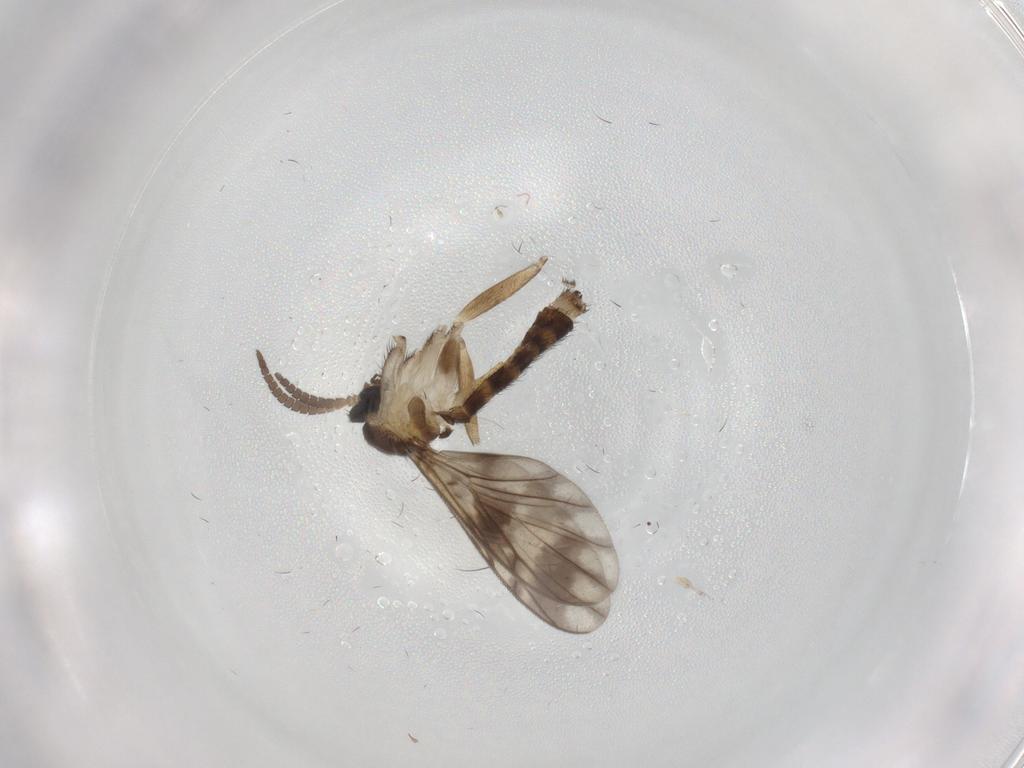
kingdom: Animalia
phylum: Arthropoda
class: Insecta
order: Diptera
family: Keroplatidae
